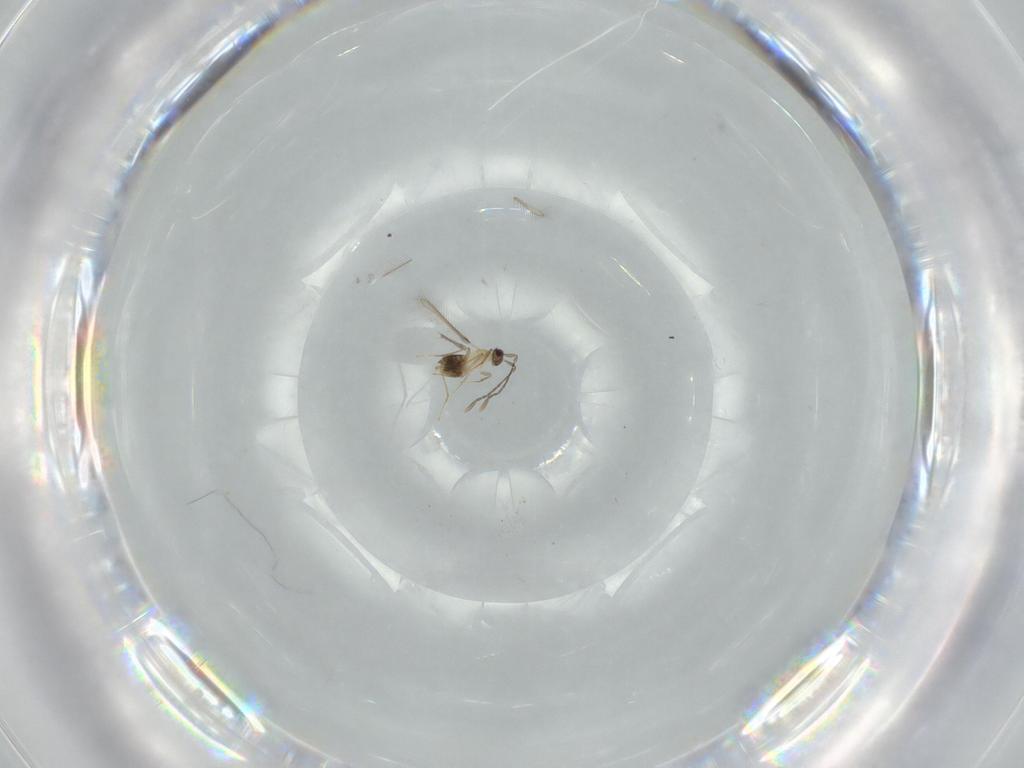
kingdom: Animalia
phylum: Arthropoda
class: Insecta
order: Hymenoptera
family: Mymaridae
